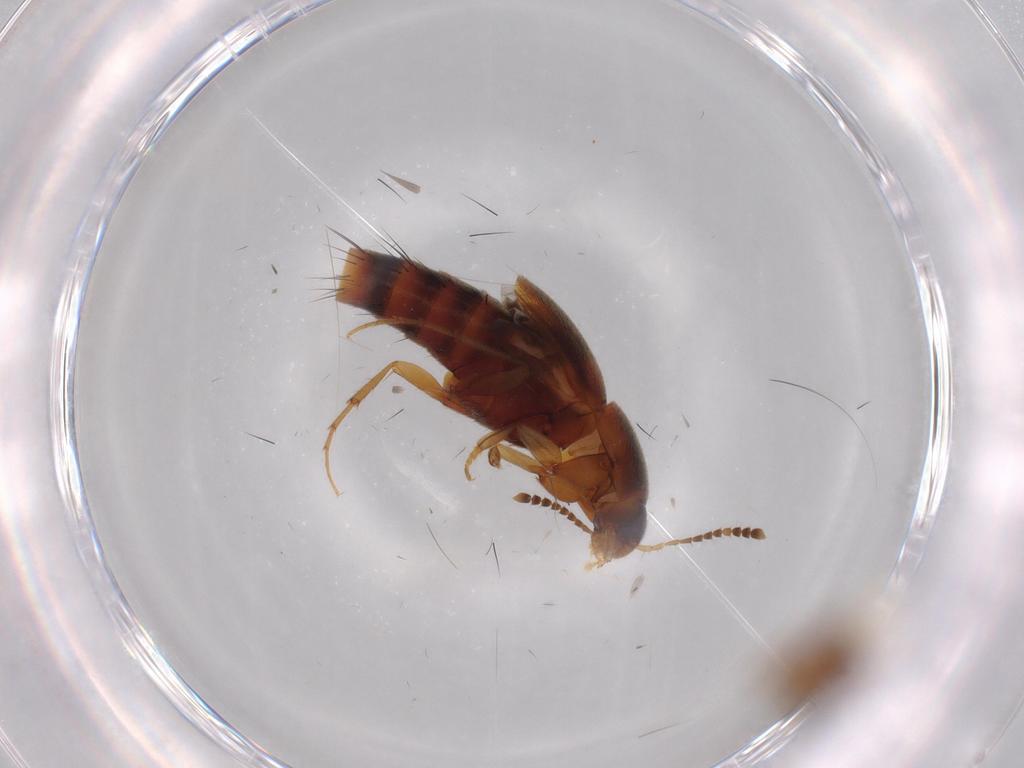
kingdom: Animalia
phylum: Arthropoda
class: Insecta
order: Coleoptera
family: Staphylinidae
